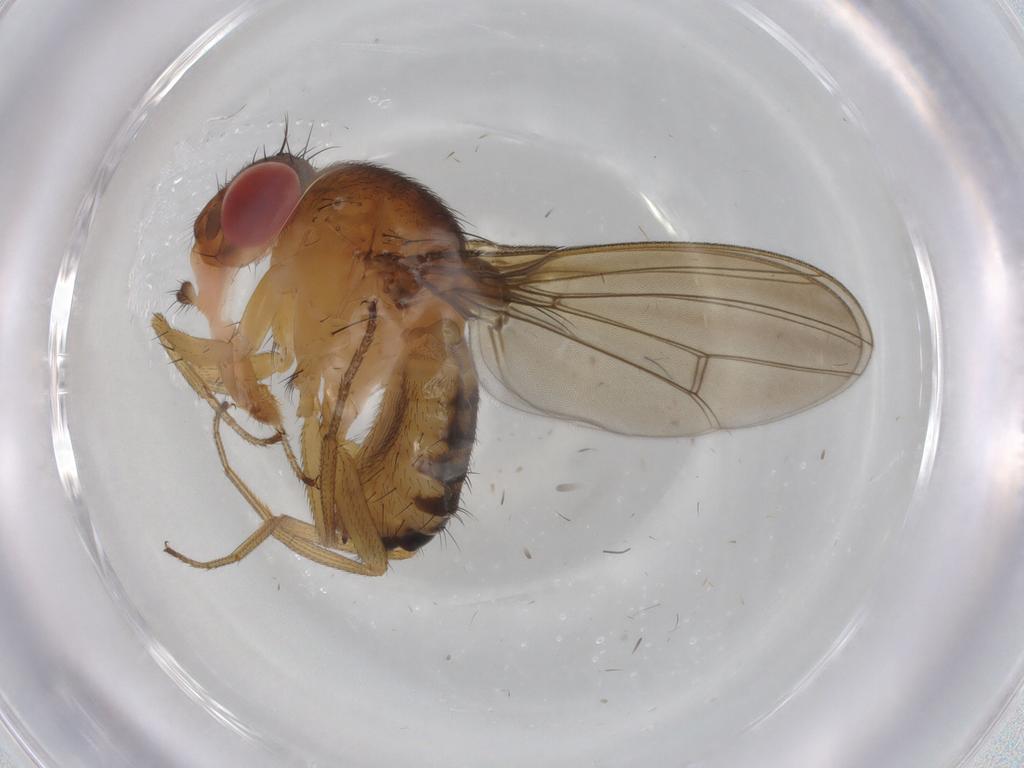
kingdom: Animalia
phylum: Arthropoda
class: Insecta
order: Diptera
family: Drosophilidae
